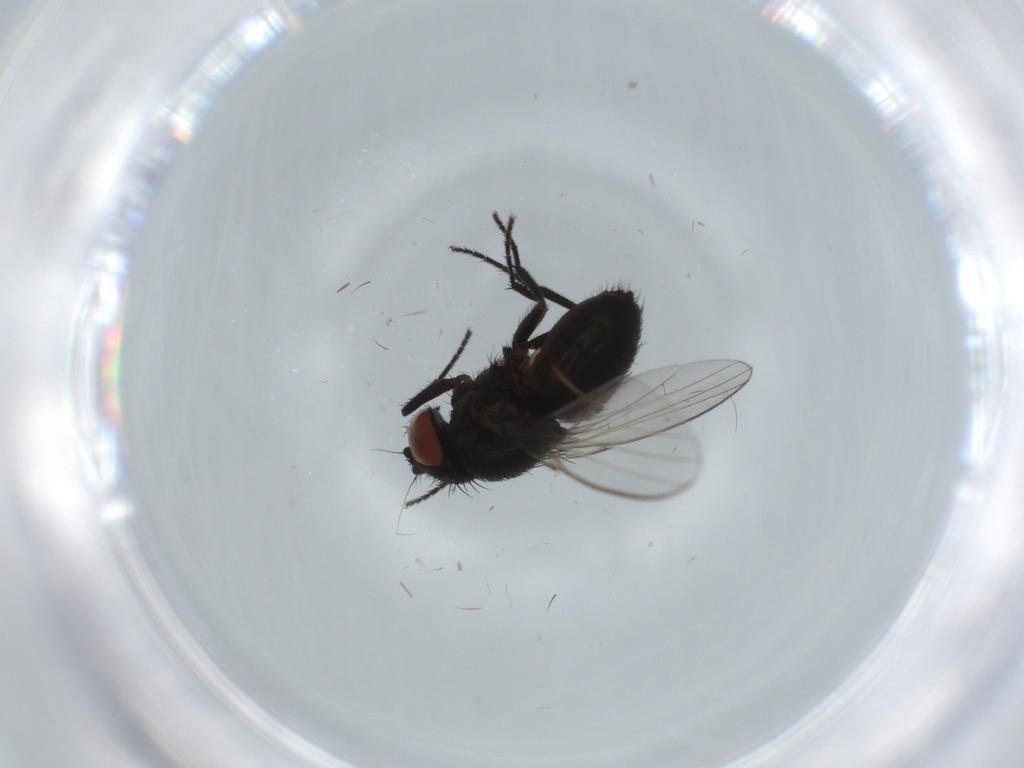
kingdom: Animalia
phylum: Arthropoda
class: Insecta
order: Diptera
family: Milichiidae
